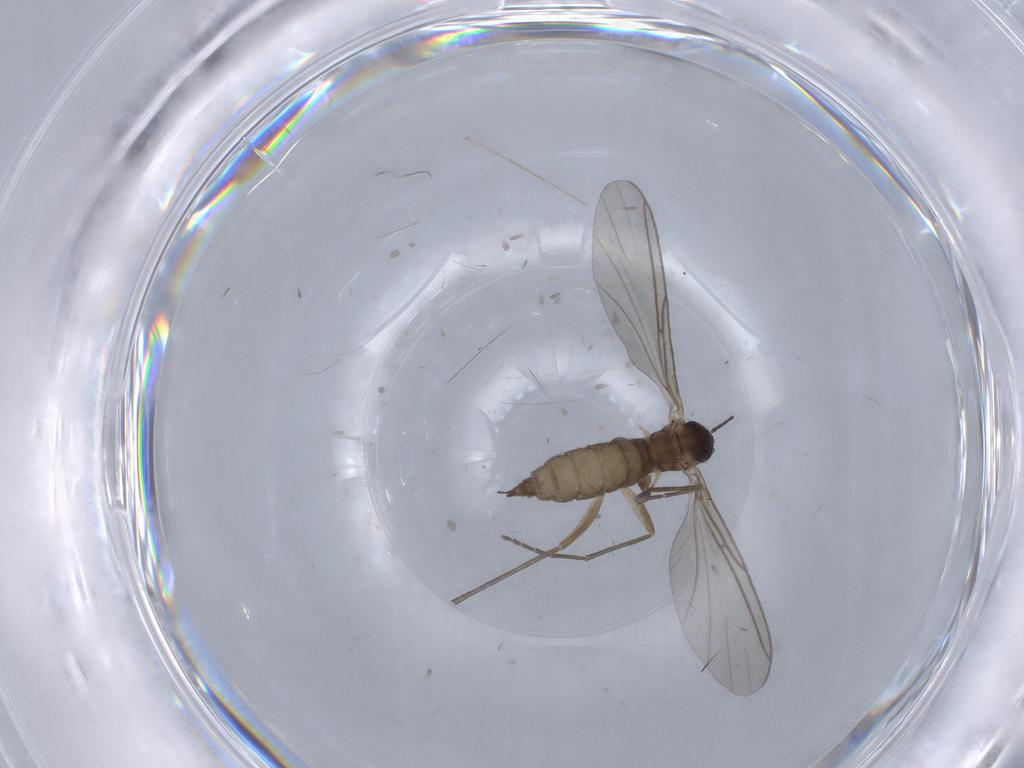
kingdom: Animalia
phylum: Arthropoda
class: Insecta
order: Diptera
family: Sciaridae
